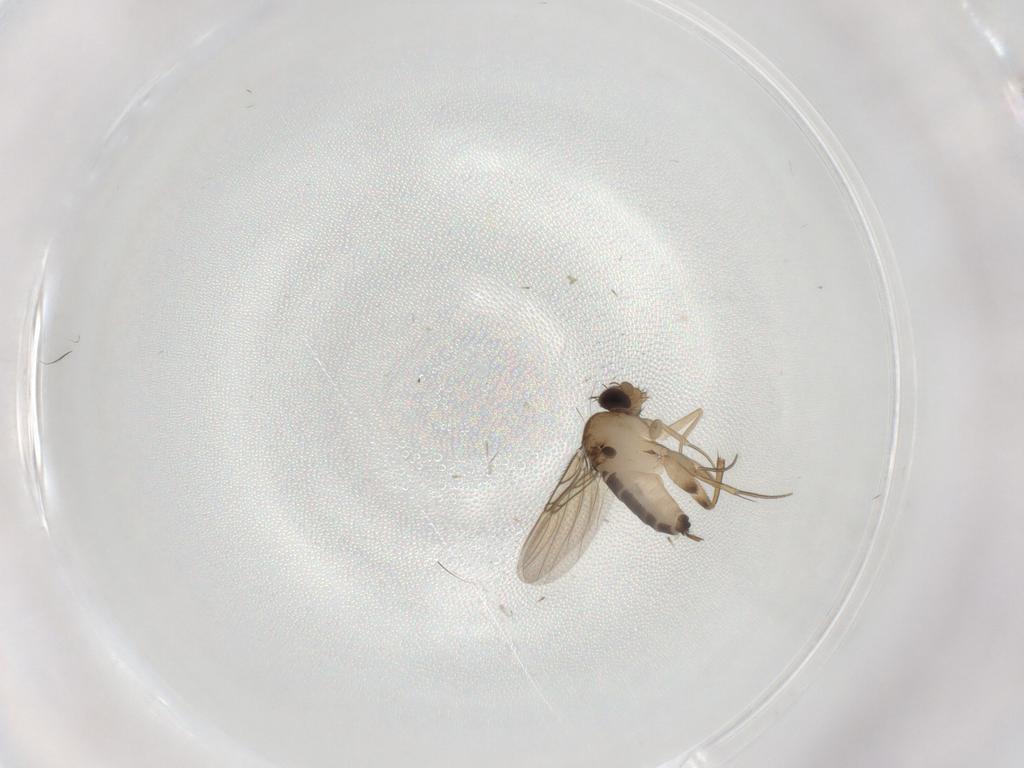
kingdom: Animalia
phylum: Arthropoda
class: Insecta
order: Diptera
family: Phoridae
